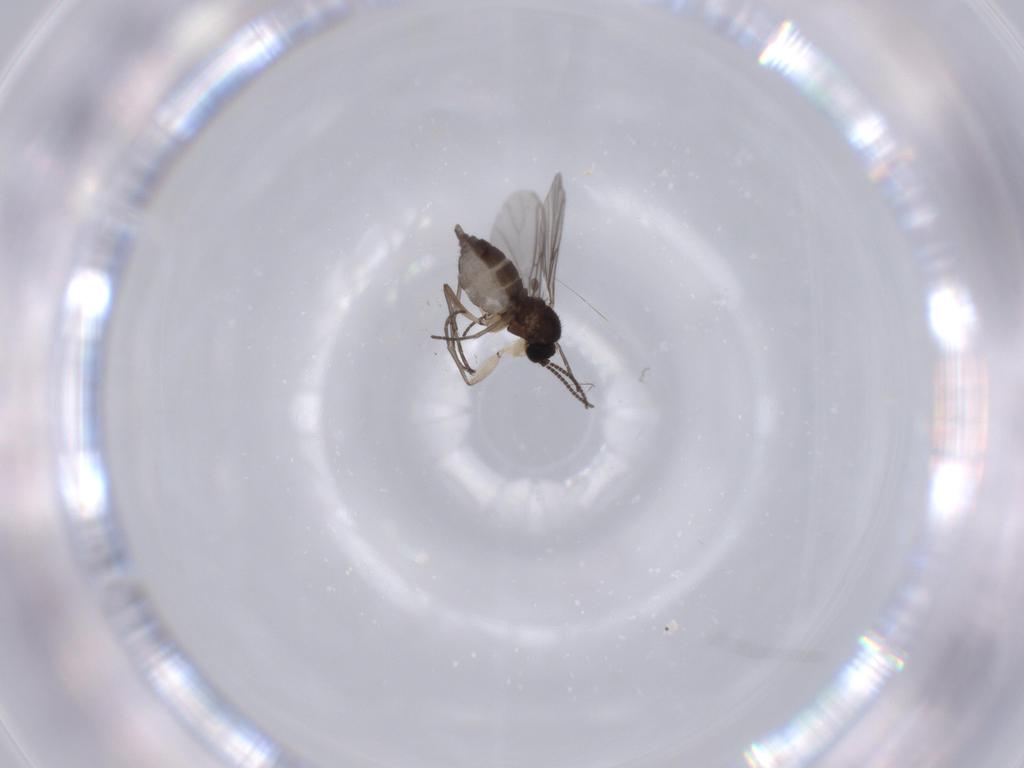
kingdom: Animalia
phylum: Arthropoda
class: Insecta
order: Diptera
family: Sciaridae
